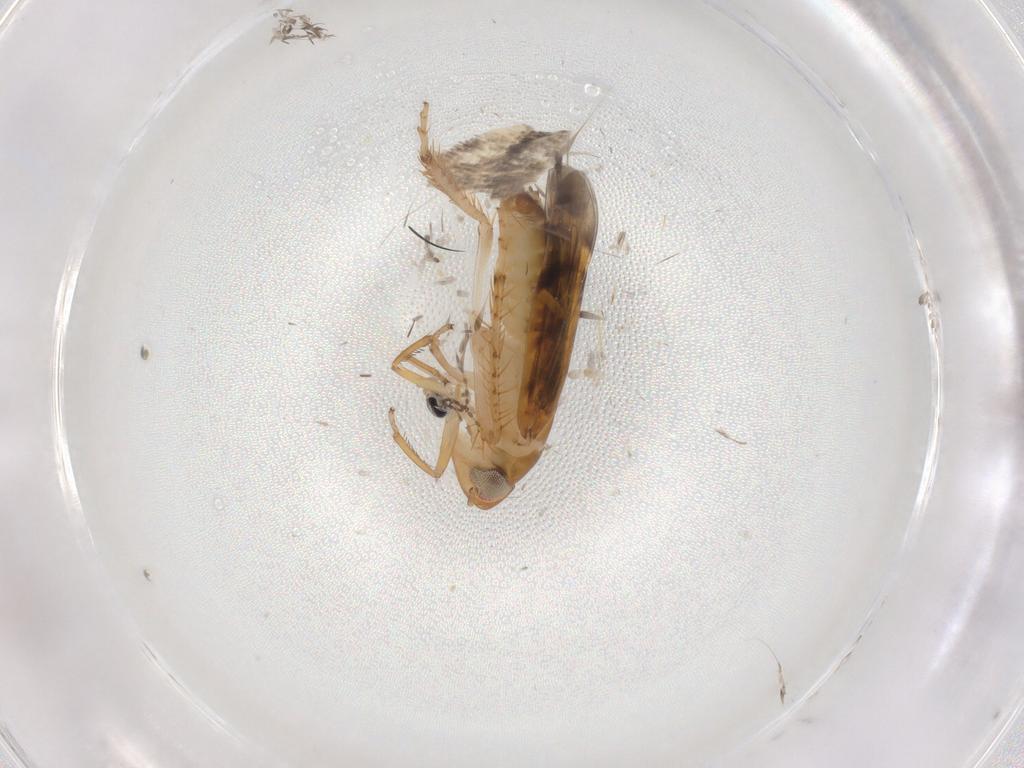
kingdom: Animalia
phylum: Arthropoda
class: Insecta
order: Hemiptera
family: Cicadellidae
